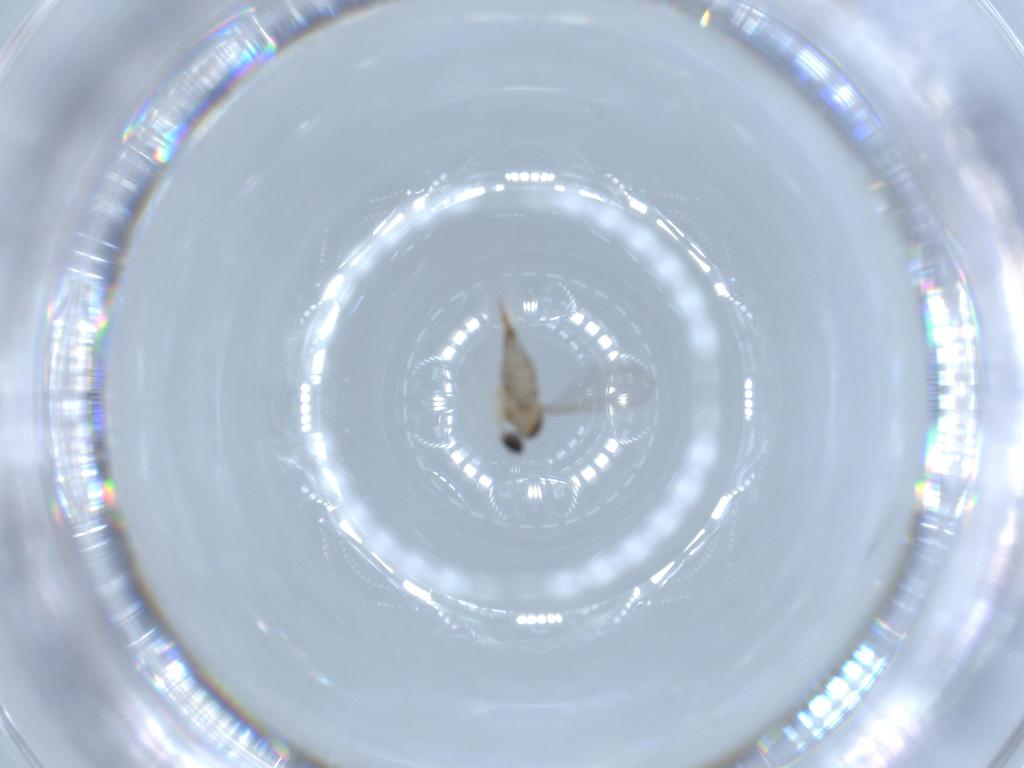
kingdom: Animalia
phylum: Arthropoda
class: Insecta
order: Diptera
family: Cecidomyiidae
